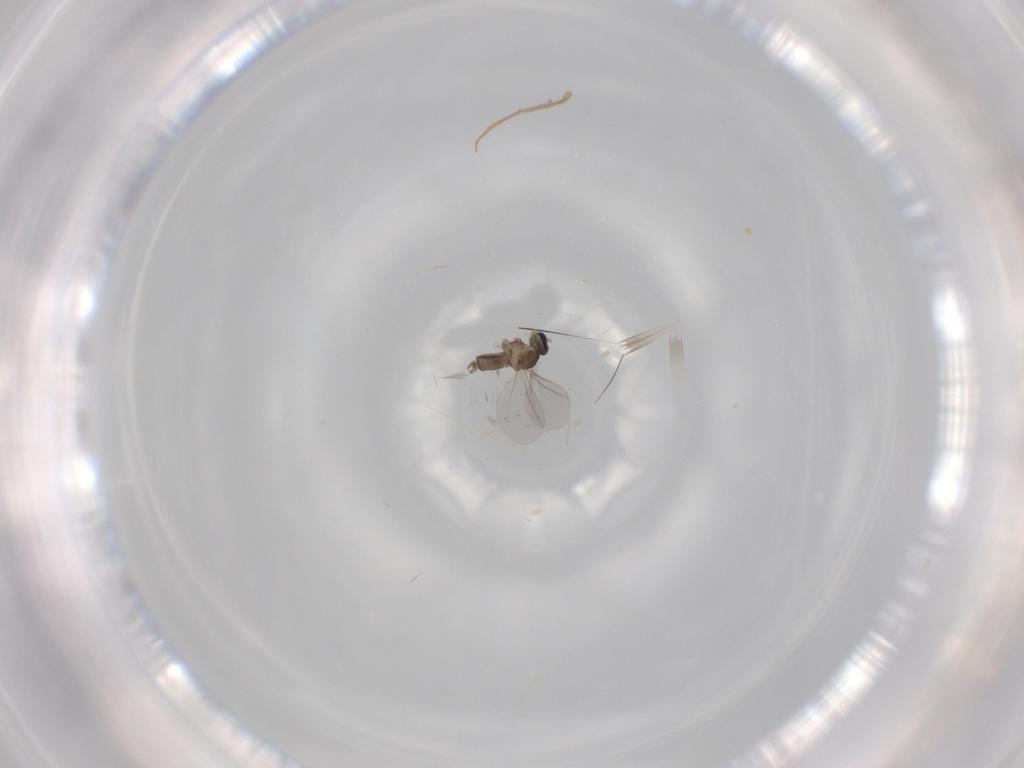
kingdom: Animalia
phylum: Arthropoda
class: Insecta
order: Diptera
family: Cecidomyiidae
